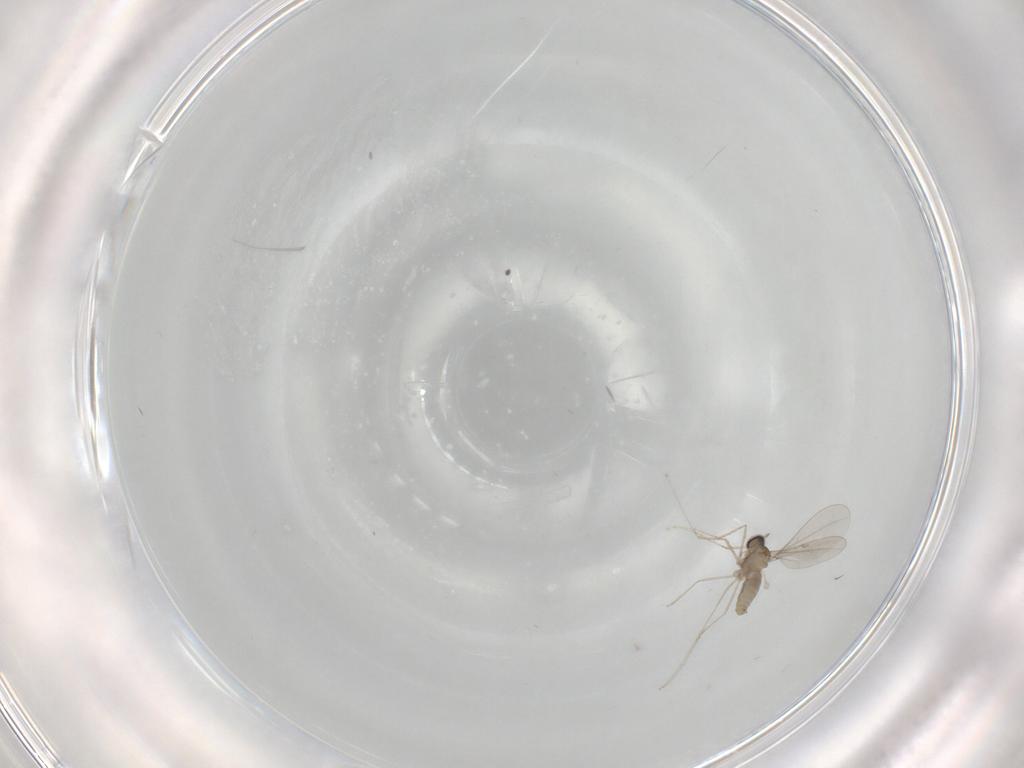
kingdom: Animalia
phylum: Arthropoda
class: Insecta
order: Diptera
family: Cecidomyiidae
